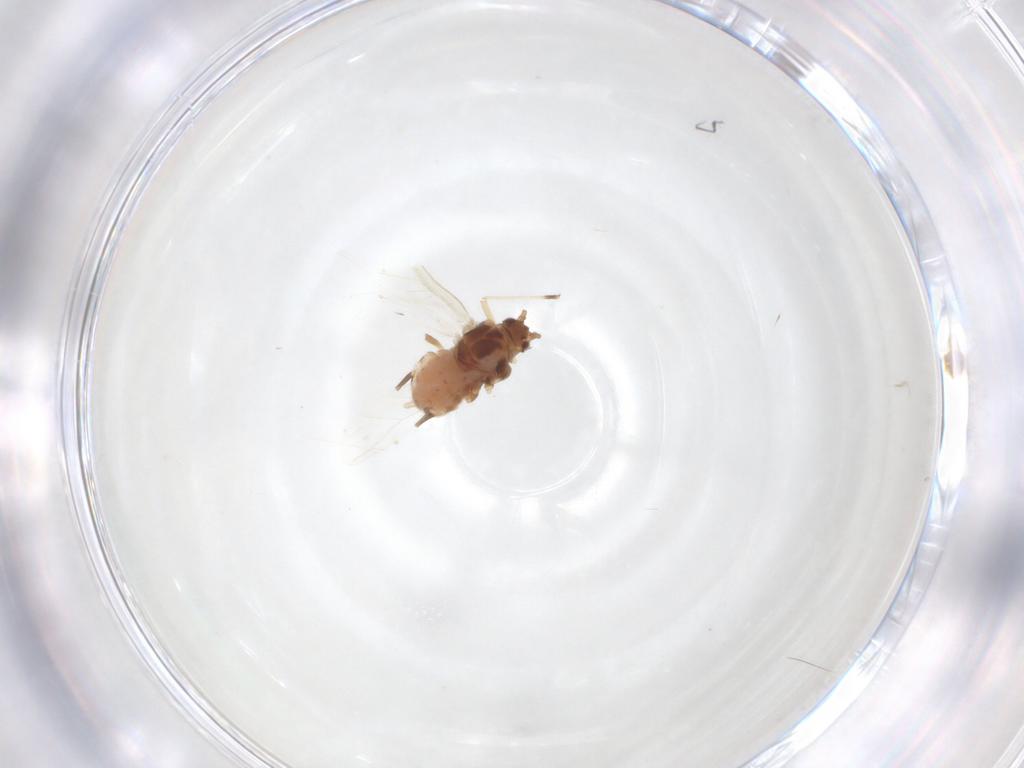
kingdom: Animalia
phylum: Arthropoda
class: Insecta
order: Hemiptera
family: Aphididae
